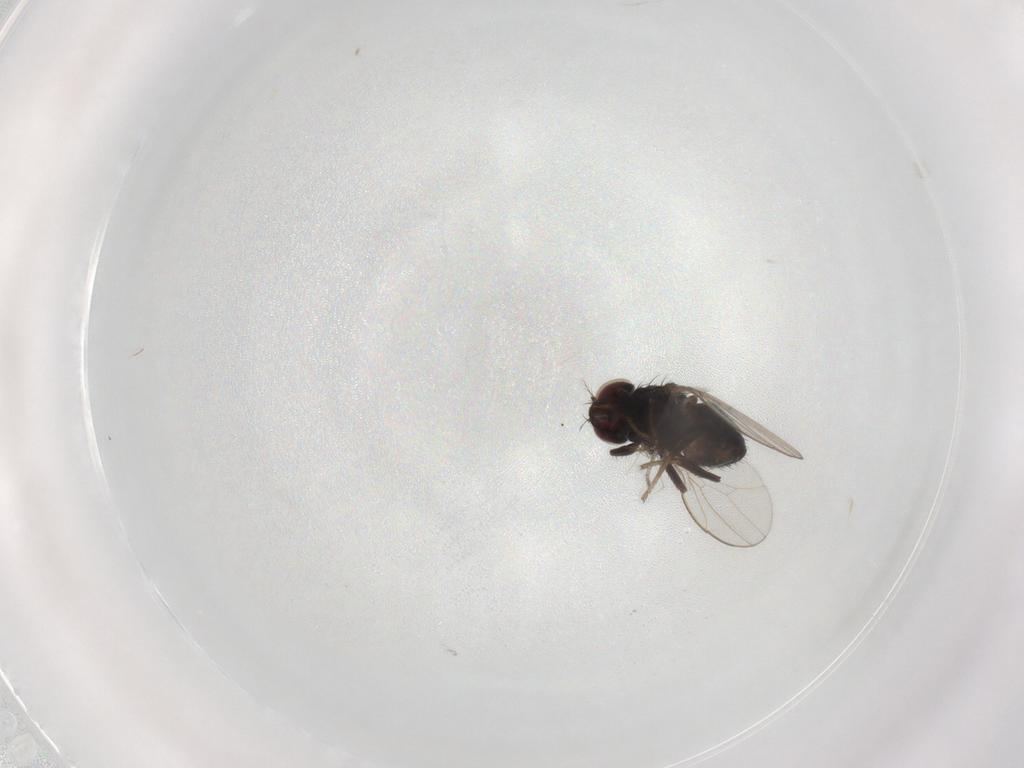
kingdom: Animalia
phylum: Arthropoda
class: Insecta
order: Diptera
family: Drosophilidae
